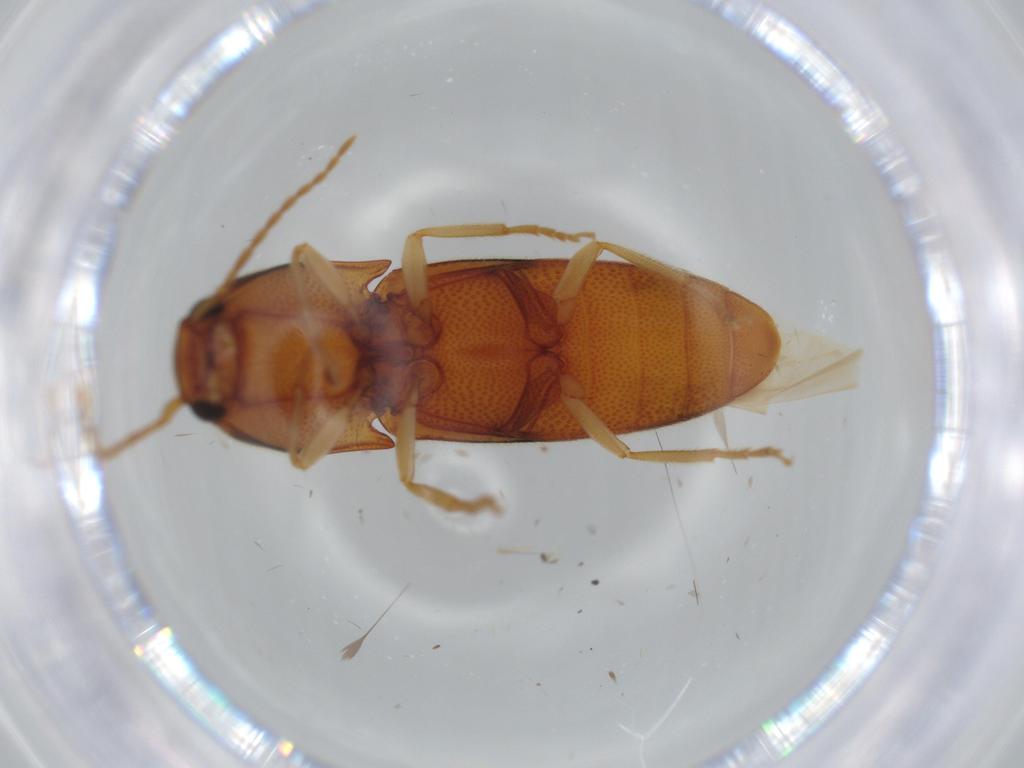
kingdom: Animalia
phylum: Arthropoda
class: Insecta
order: Coleoptera
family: Elateridae
